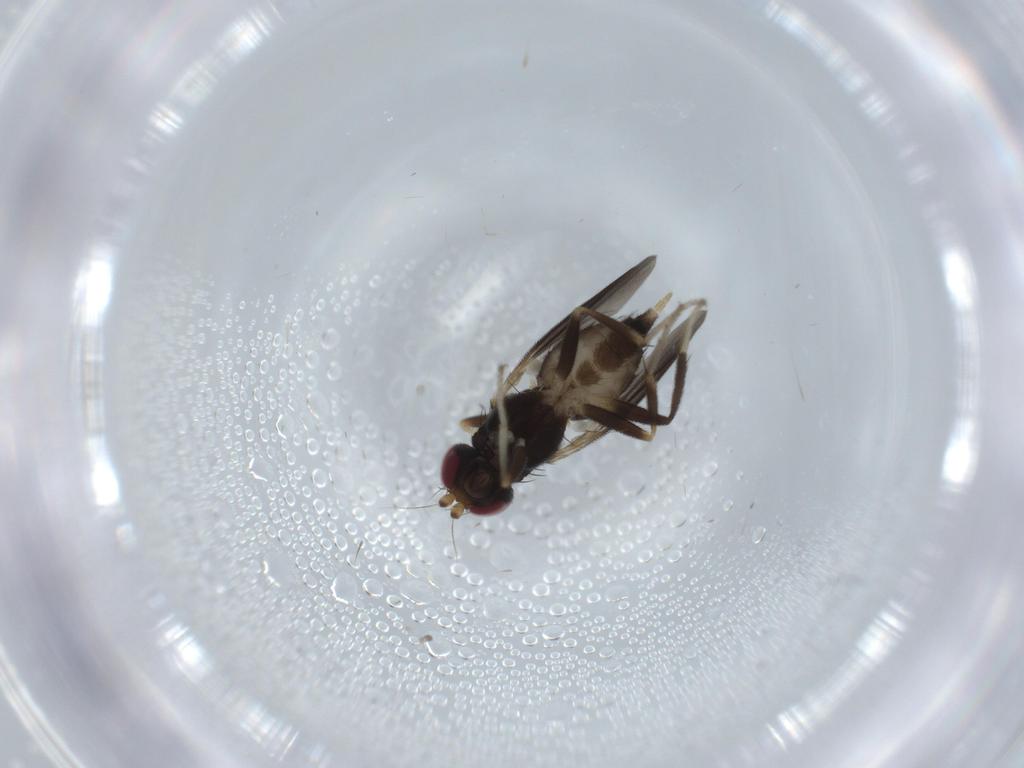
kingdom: Animalia
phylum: Arthropoda
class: Insecta
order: Diptera
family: Clusiidae
